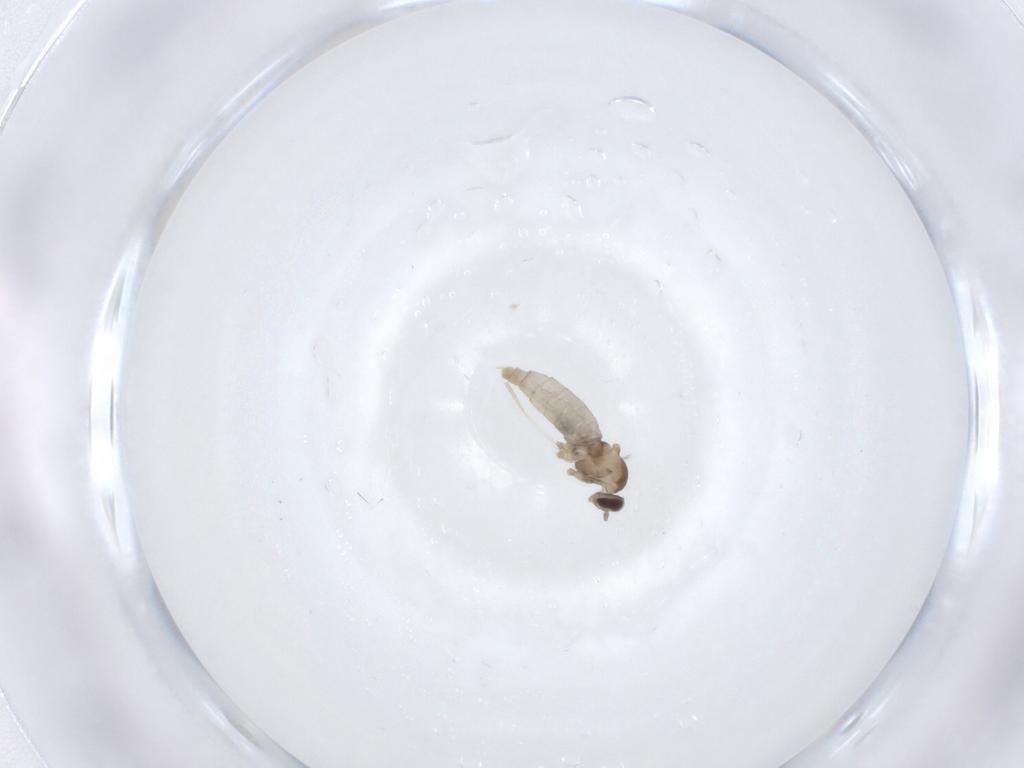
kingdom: Animalia
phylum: Arthropoda
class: Insecta
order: Diptera
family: Cecidomyiidae
